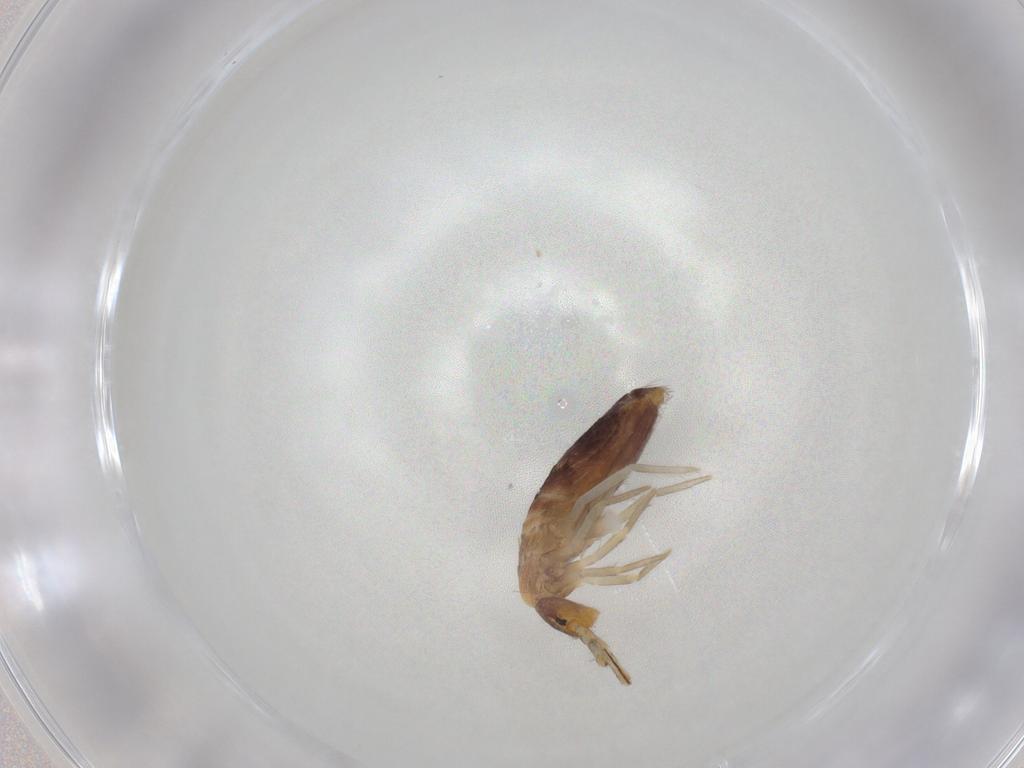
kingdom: Animalia
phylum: Arthropoda
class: Collembola
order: Entomobryomorpha
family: Entomobryidae
